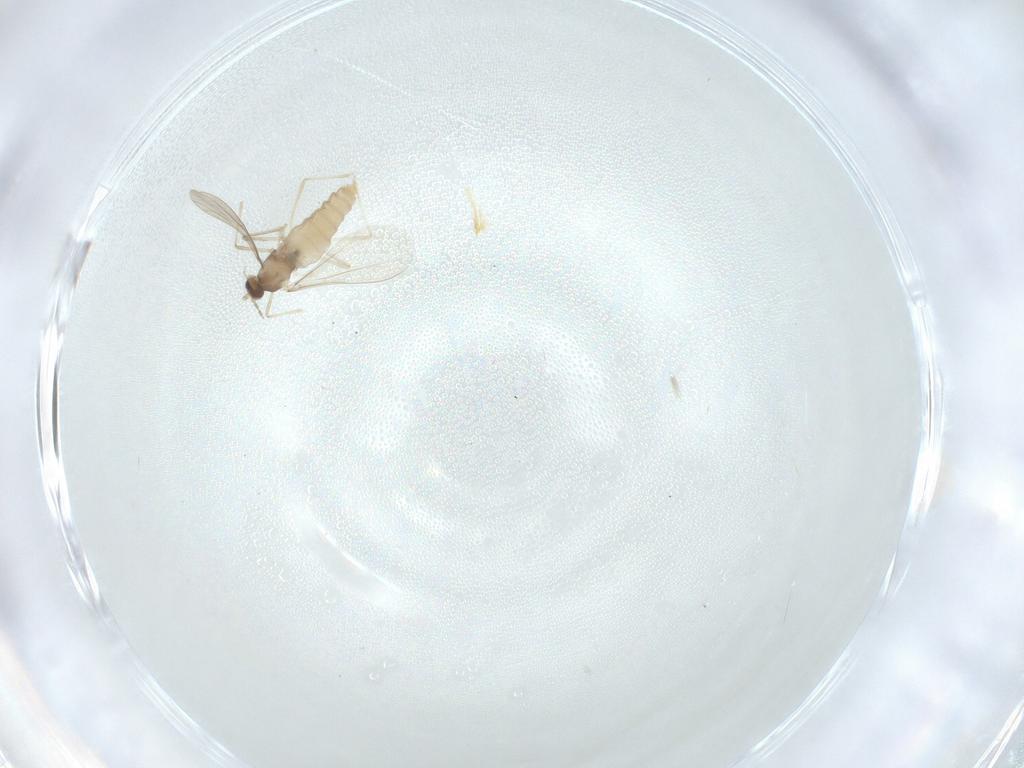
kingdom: Animalia
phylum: Arthropoda
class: Insecta
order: Diptera
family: Cecidomyiidae
